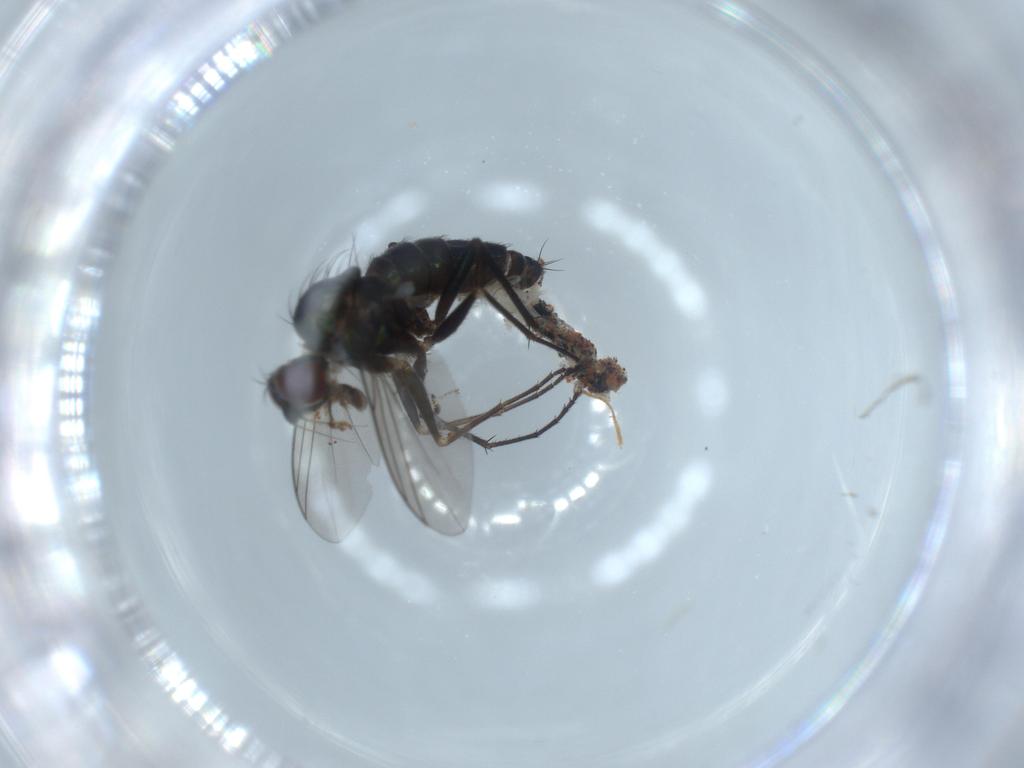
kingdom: Animalia
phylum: Arthropoda
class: Insecta
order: Diptera
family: Dolichopodidae
